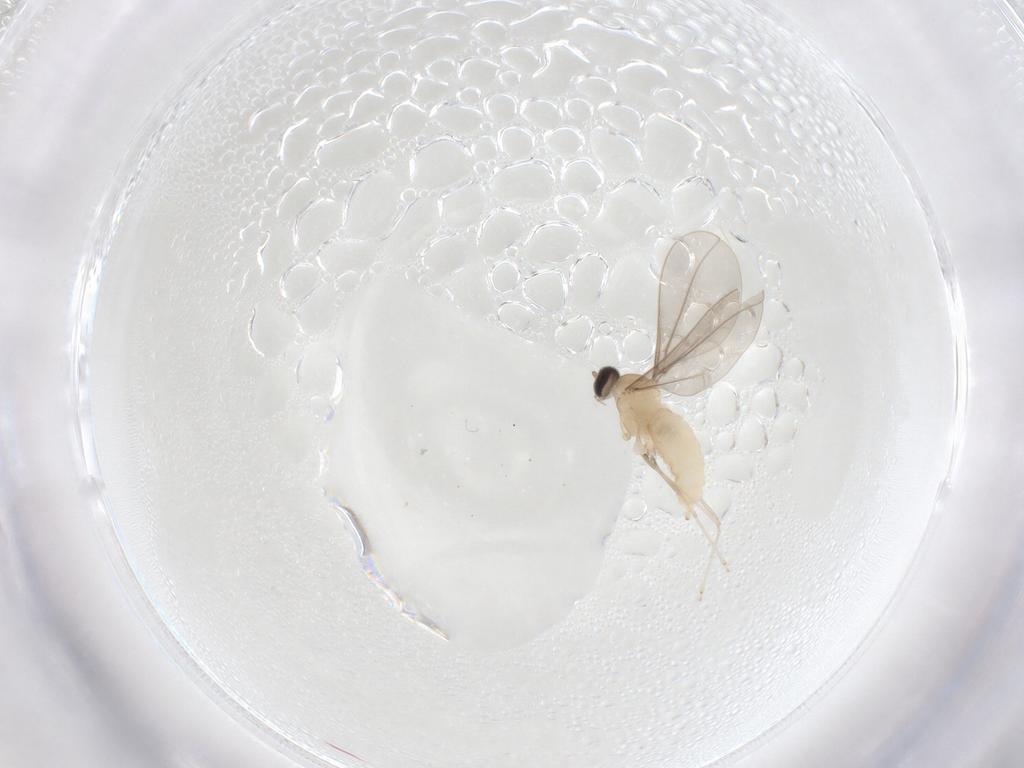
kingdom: Animalia
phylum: Arthropoda
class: Insecta
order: Diptera
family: Cecidomyiidae
